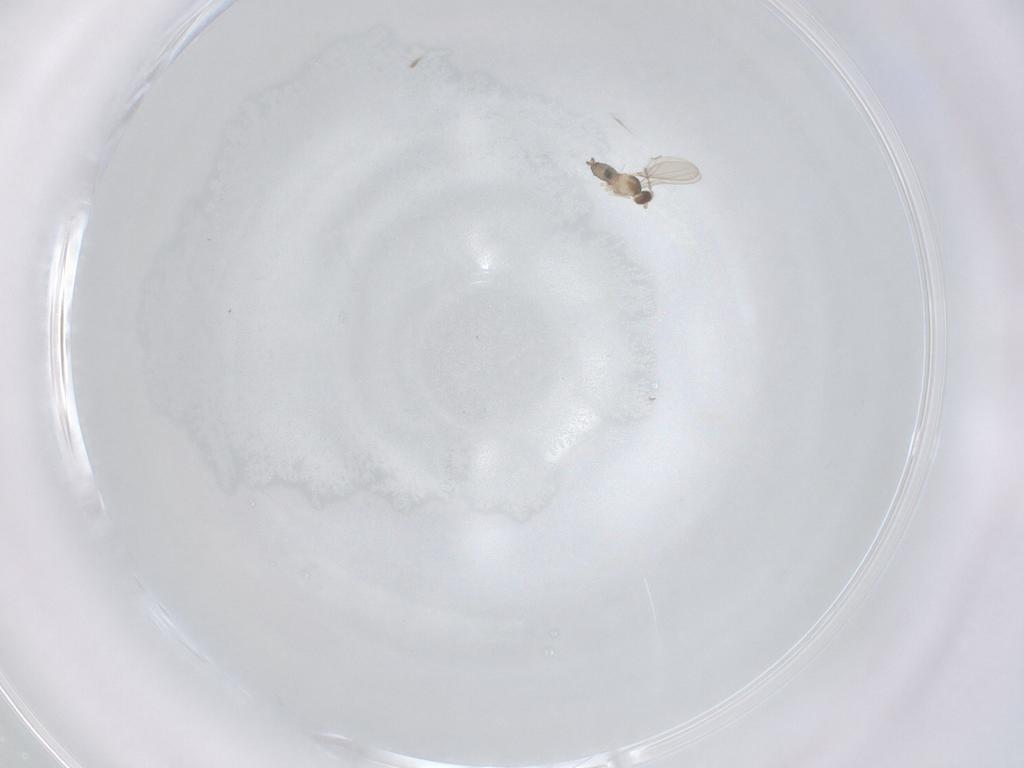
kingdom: Animalia
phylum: Arthropoda
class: Insecta
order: Diptera
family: Cecidomyiidae
